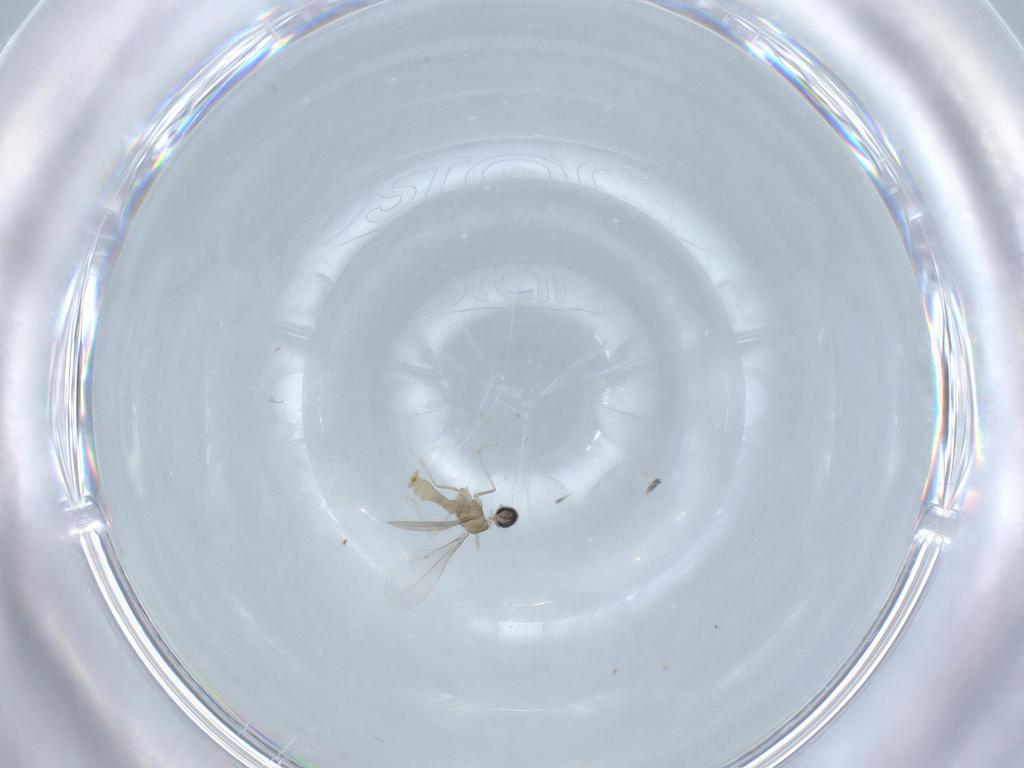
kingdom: Animalia
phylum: Arthropoda
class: Insecta
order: Diptera
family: Cecidomyiidae
